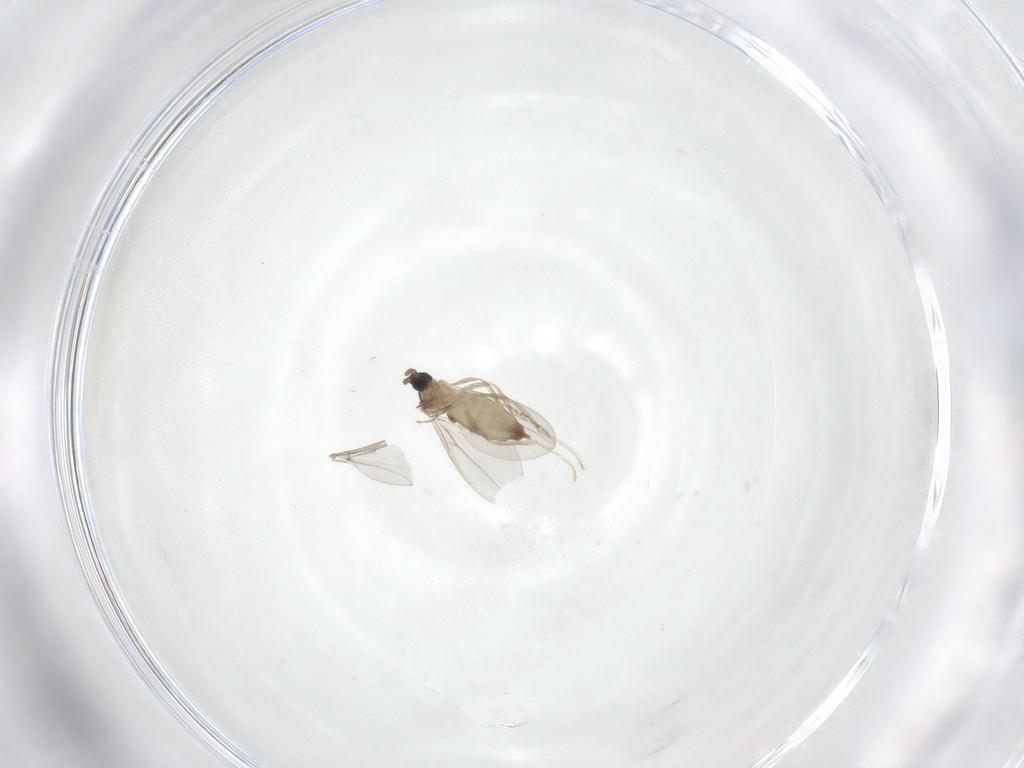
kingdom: Animalia
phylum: Arthropoda
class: Insecta
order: Diptera
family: Cecidomyiidae
